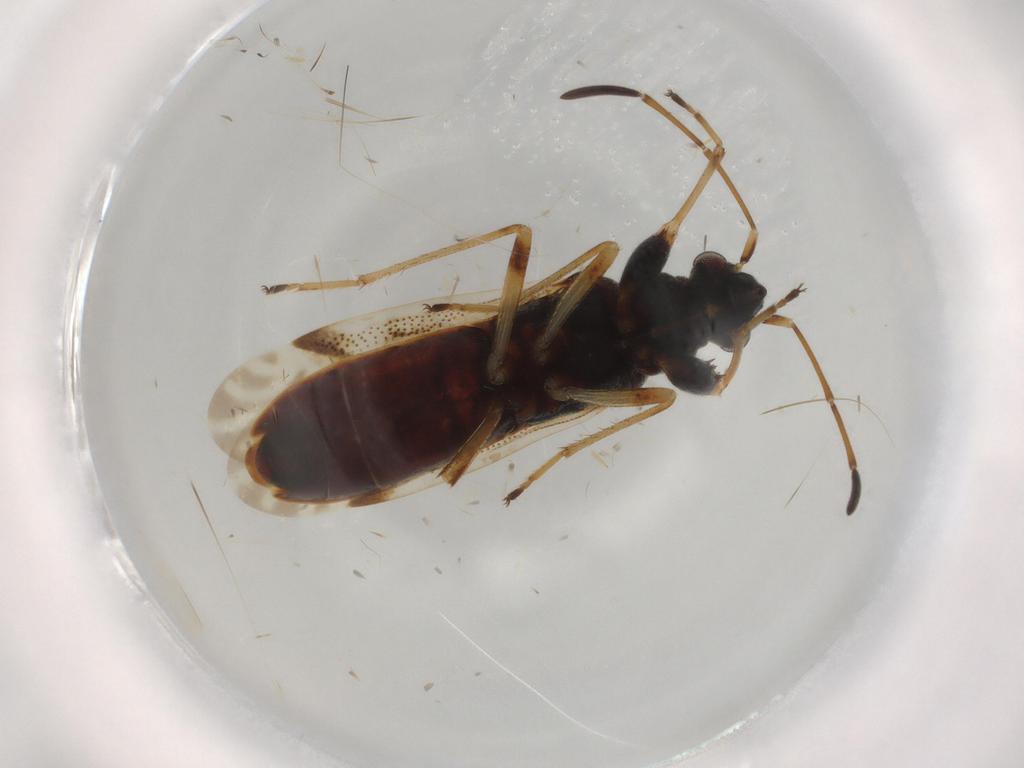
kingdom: Animalia
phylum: Arthropoda
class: Insecta
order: Hemiptera
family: Rhyparochromidae
